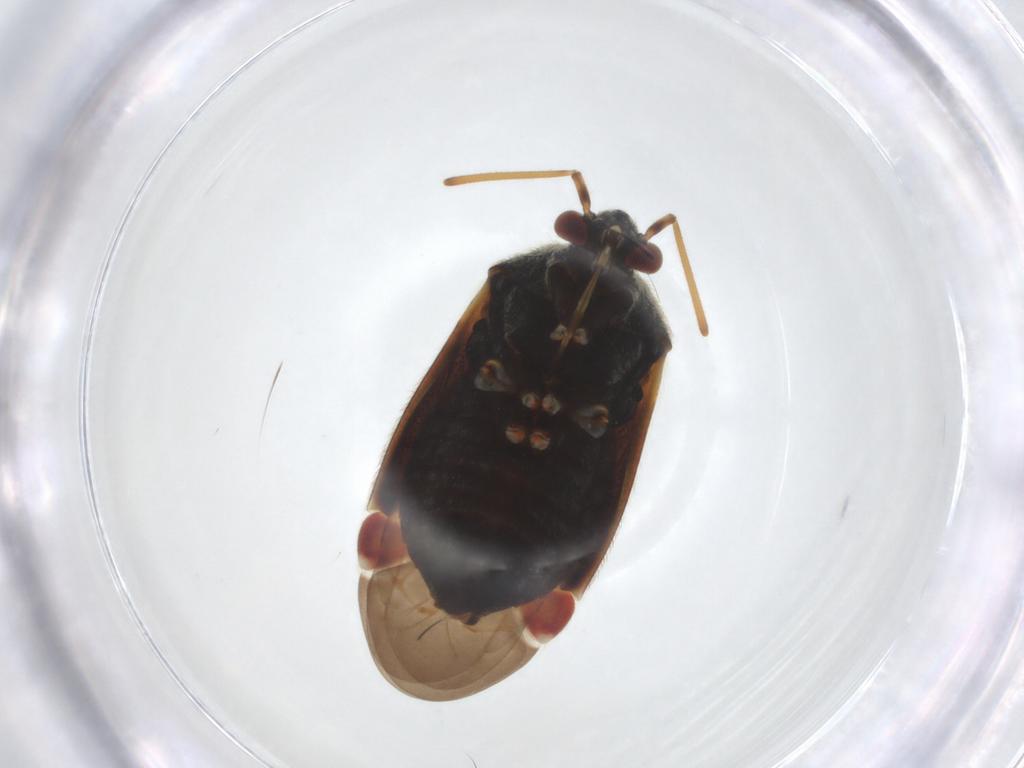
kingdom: Animalia
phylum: Arthropoda
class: Insecta
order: Hemiptera
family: Miridae
